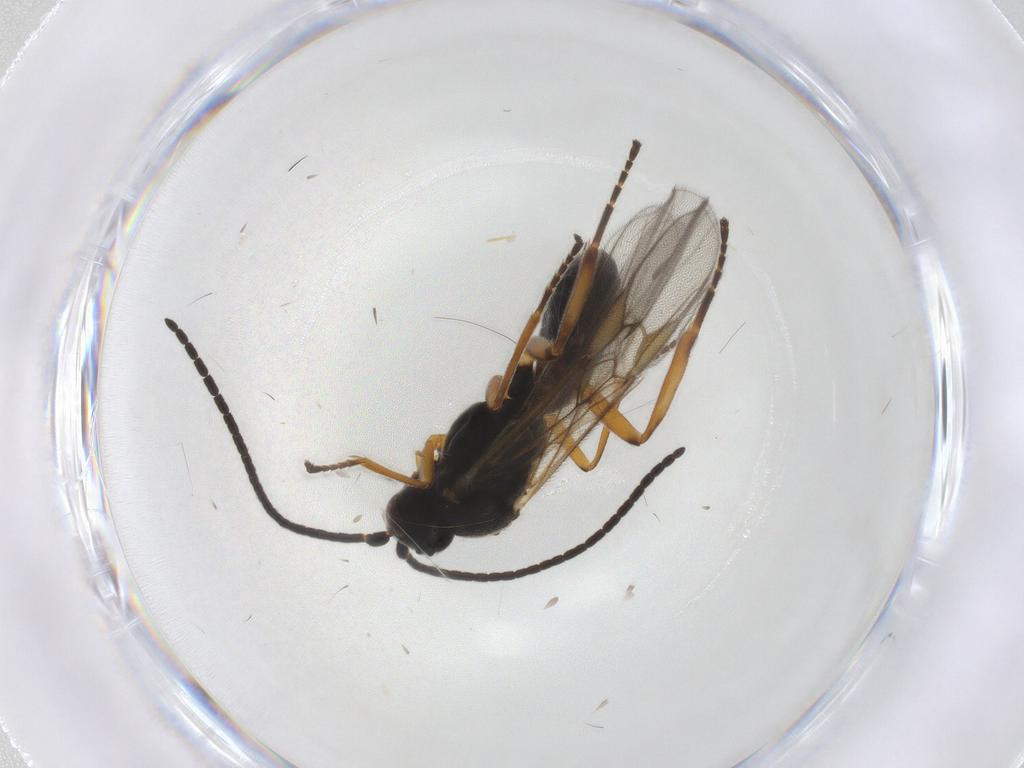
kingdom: Animalia
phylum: Arthropoda
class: Insecta
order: Hymenoptera
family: Braconidae
